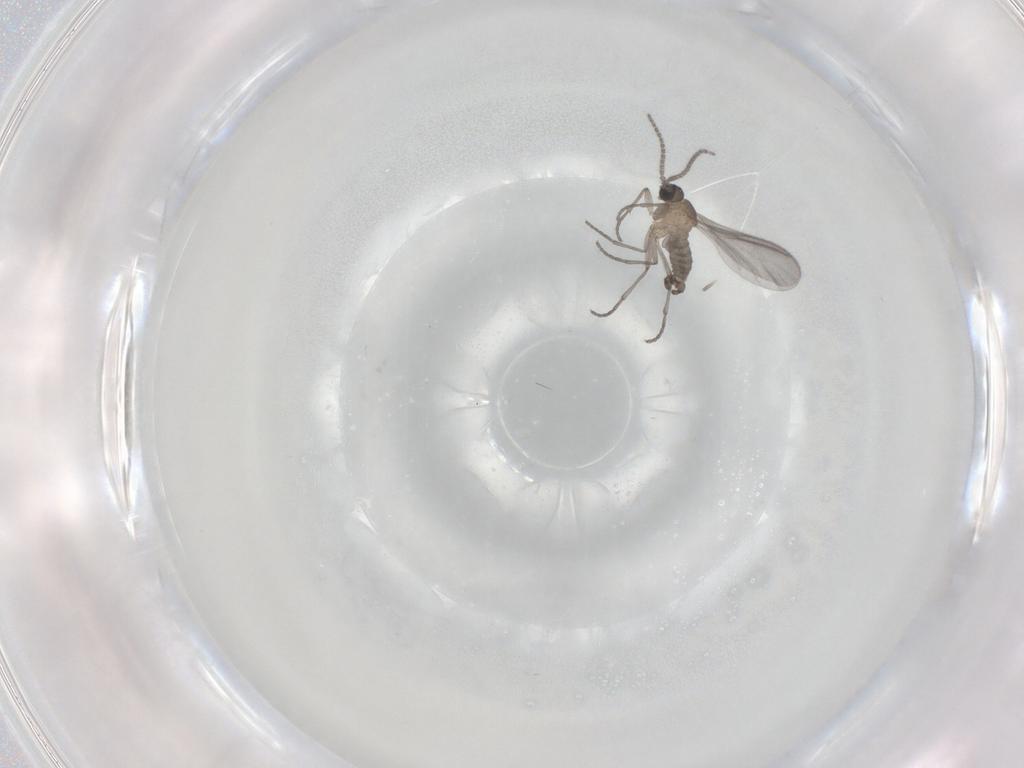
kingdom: Animalia
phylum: Arthropoda
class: Insecta
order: Diptera
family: Sciaridae
